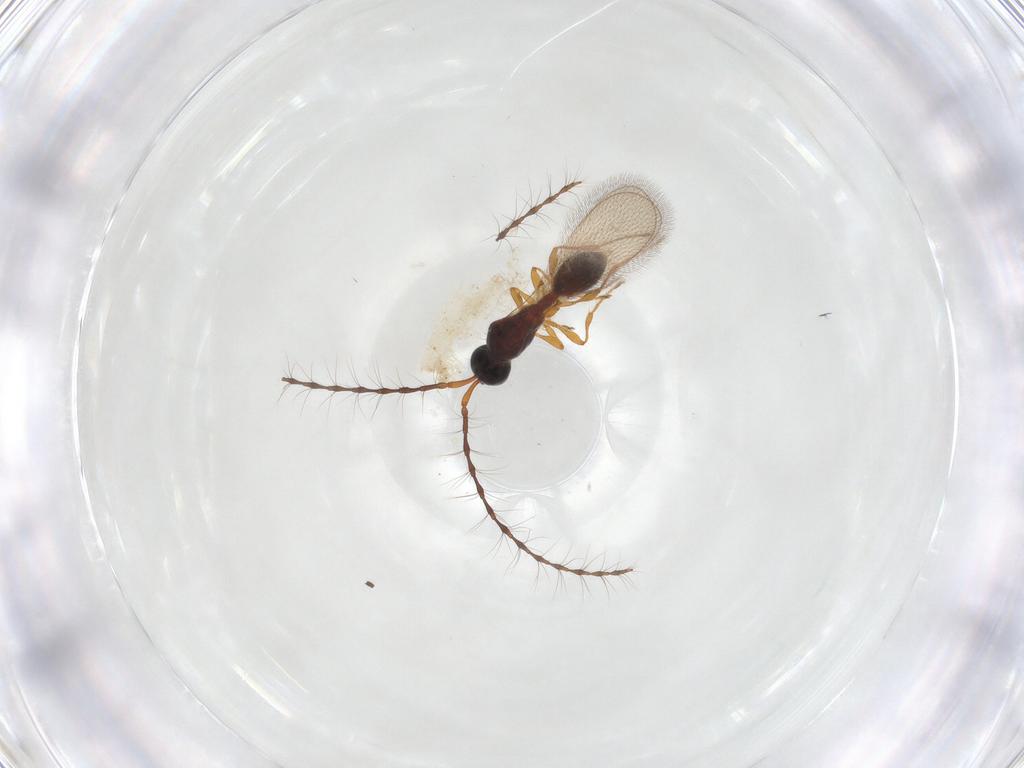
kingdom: Animalia
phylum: Arthropoda
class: Insecta
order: Hymenoptera
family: Scelionidae
